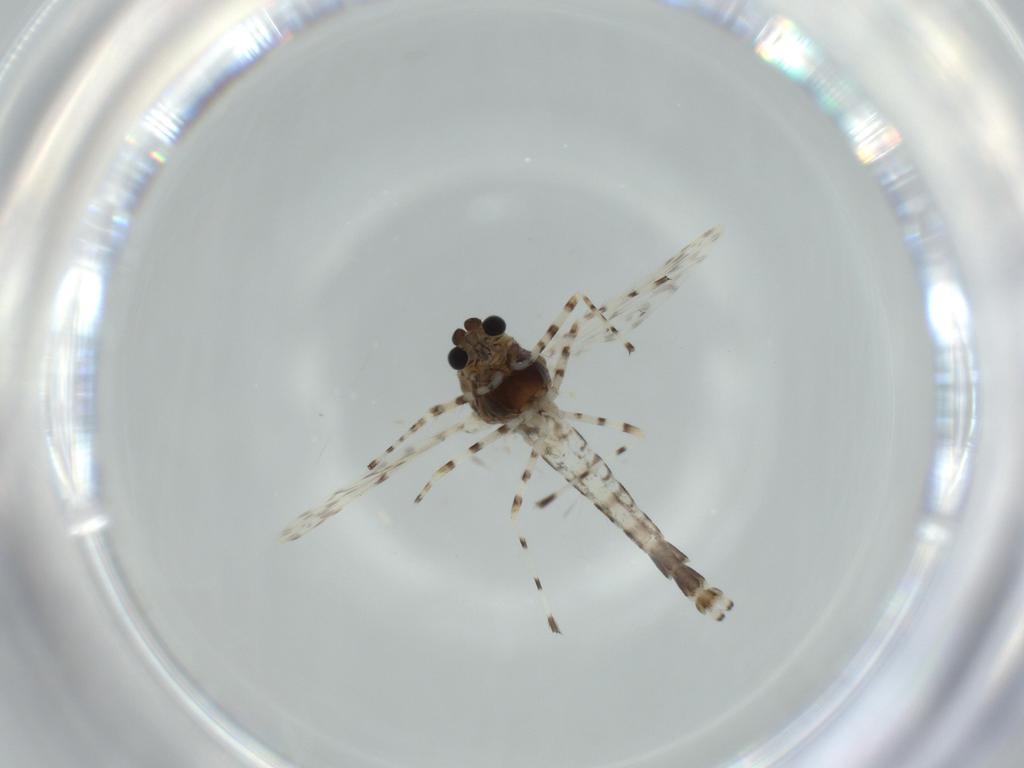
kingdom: Animalia
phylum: Arthropoda
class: Insecta
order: Diptera
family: Chironomidae
